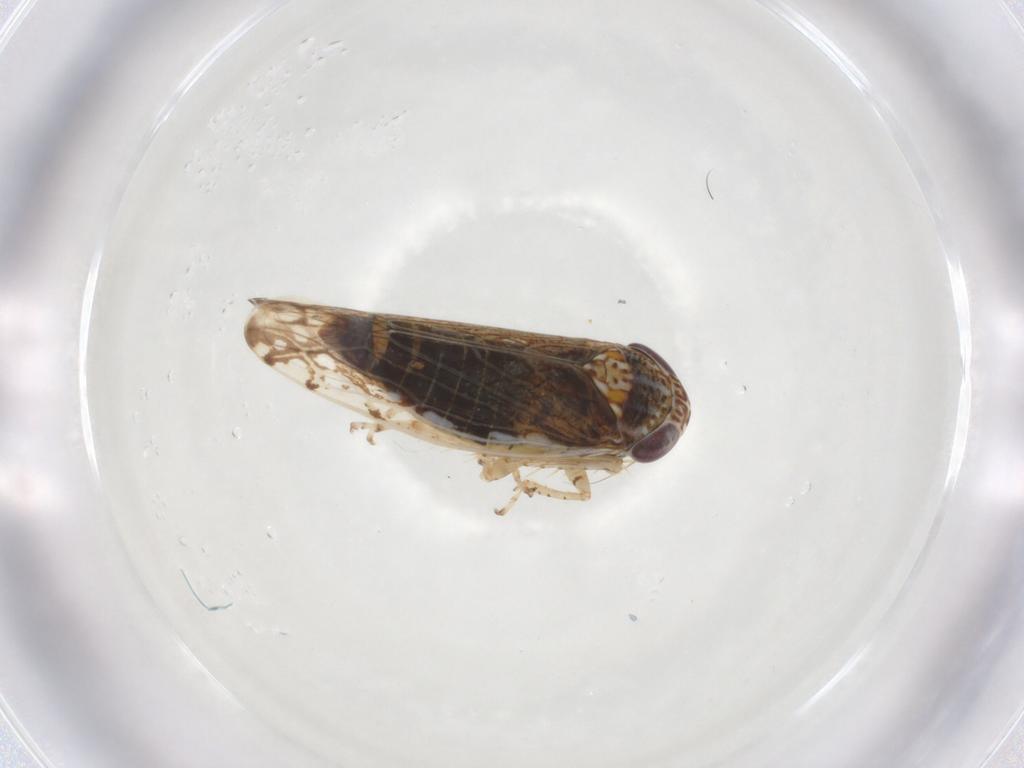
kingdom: Animalia
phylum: Arthropoda
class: Insecta
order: Hemiptera
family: Cicadellidae
